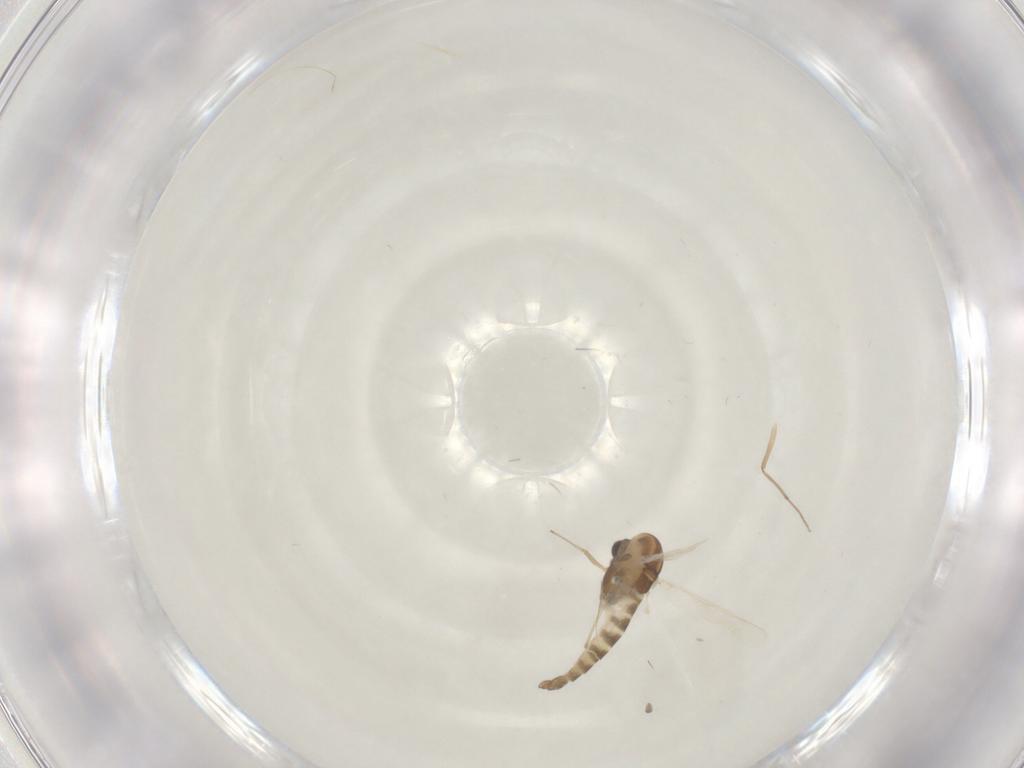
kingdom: Animalia
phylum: Arthropoda
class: Insecta
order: Diptera
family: Chironomidae
